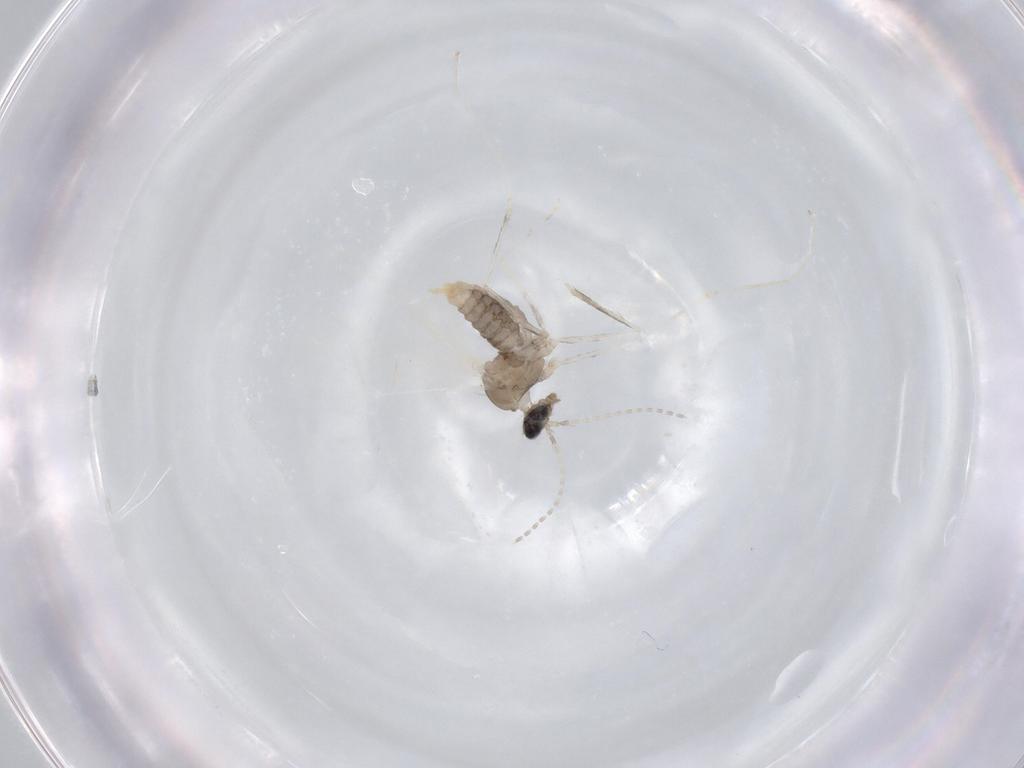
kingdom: Animalia
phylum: Arthropoda
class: Insecta
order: Diptera
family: Cecidomyiidae
